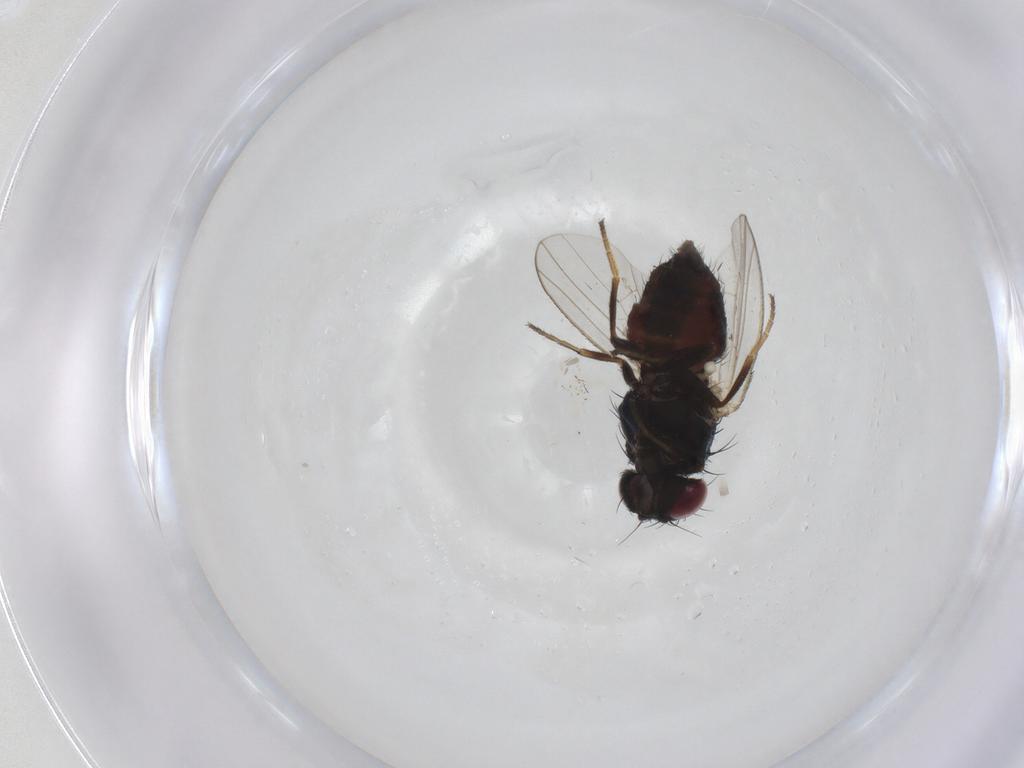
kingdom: Animalia
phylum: Arthropoda
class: Insecta
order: Diptera
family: Carnidae
